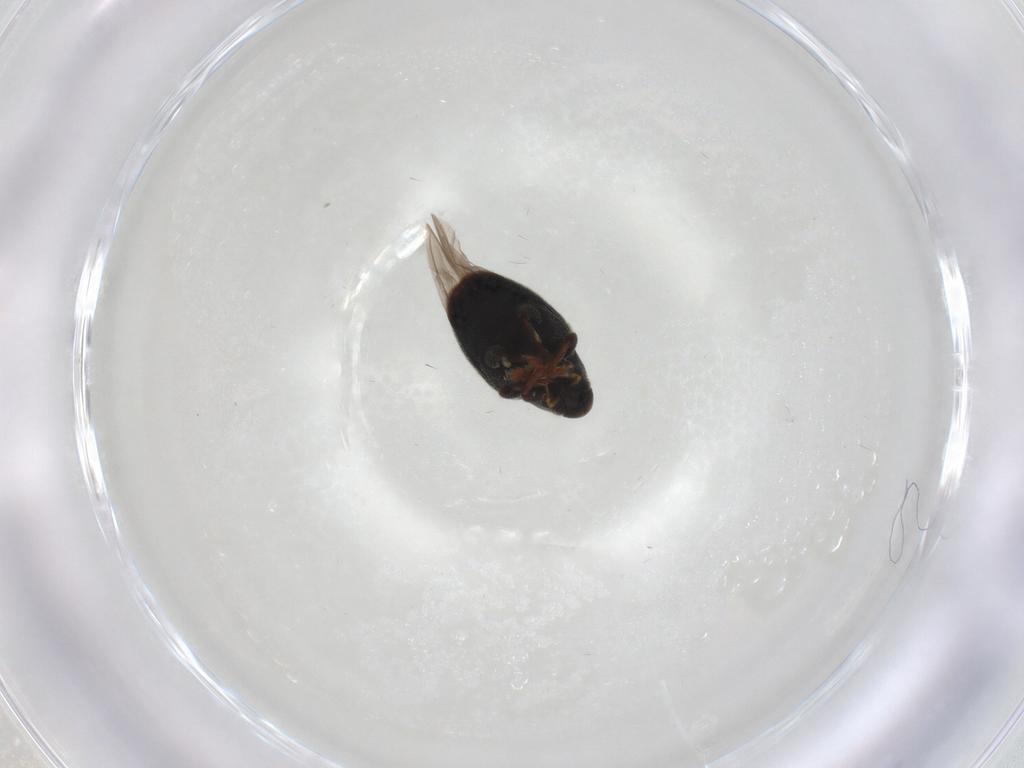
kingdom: Animalia
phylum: Arthropoda
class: Insecta
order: Coleoptera
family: Curculionidae
